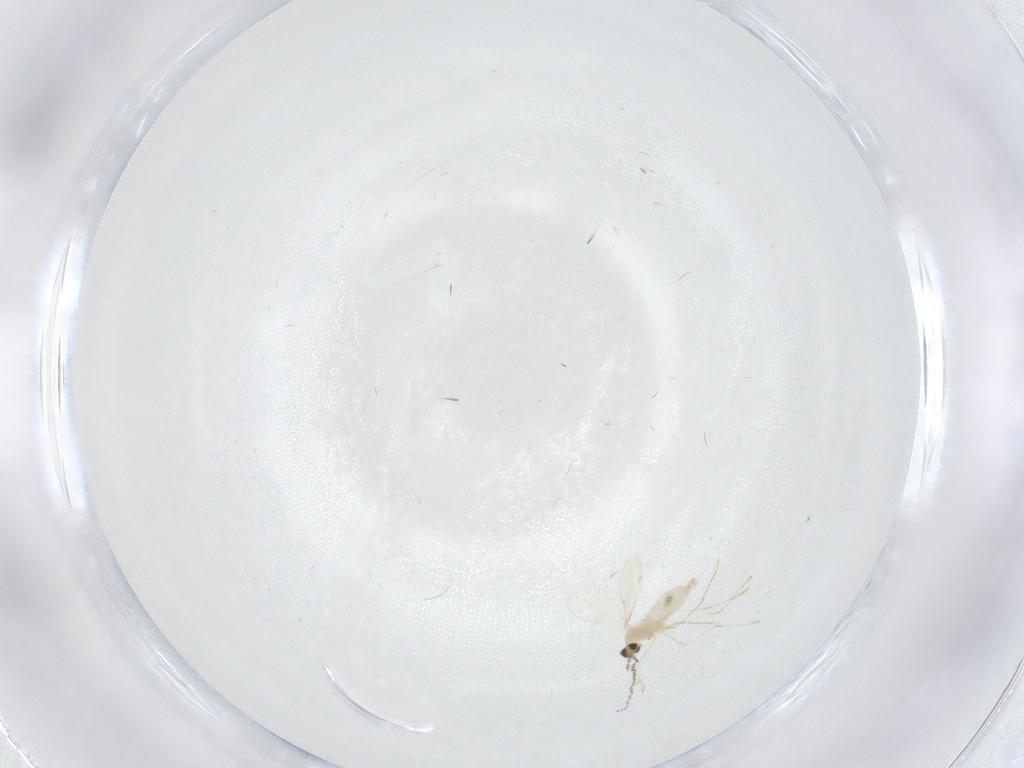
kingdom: Animalia
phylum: Arthropoda
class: Insecta
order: Diptera
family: Cecidomyiidae
